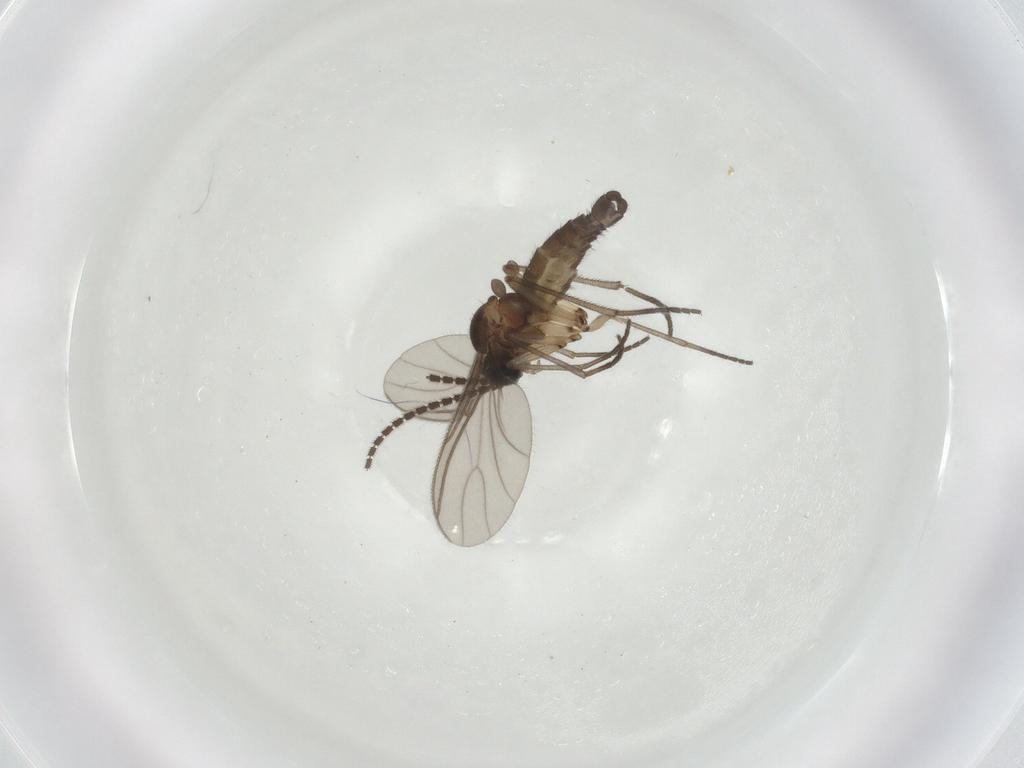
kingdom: Animalia
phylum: Arthropoda
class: Insecta
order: Diptera
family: Sciaridae
